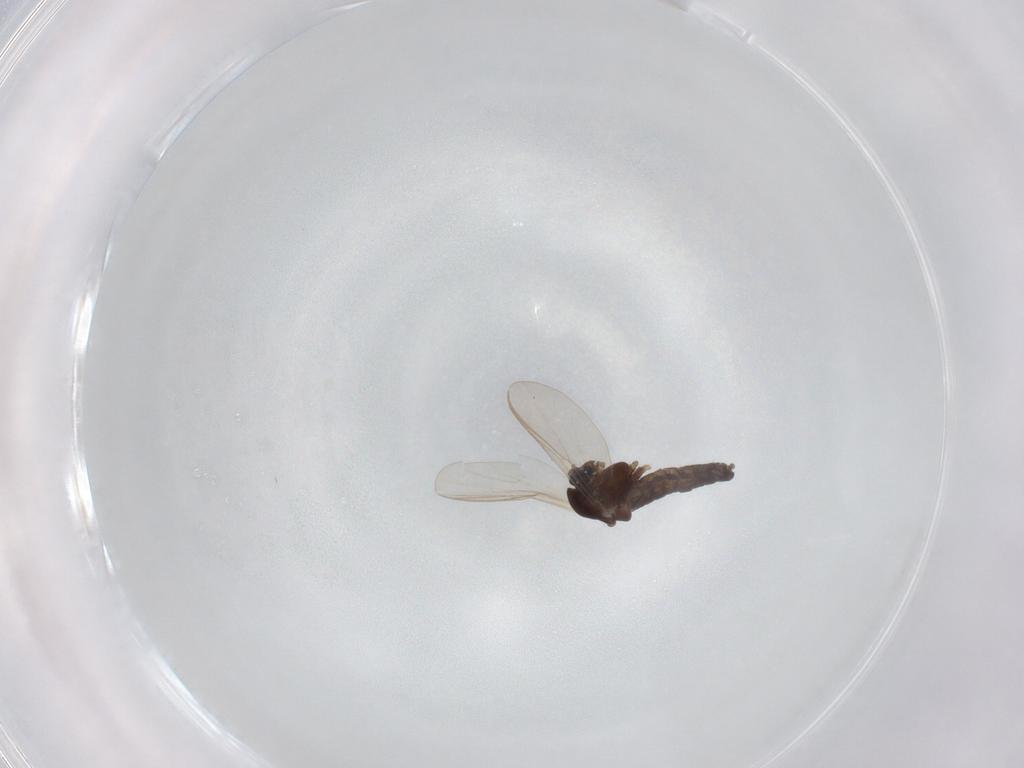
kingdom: Animalia
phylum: Arthropoda
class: Insecta
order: Diptera
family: Chironomidae
